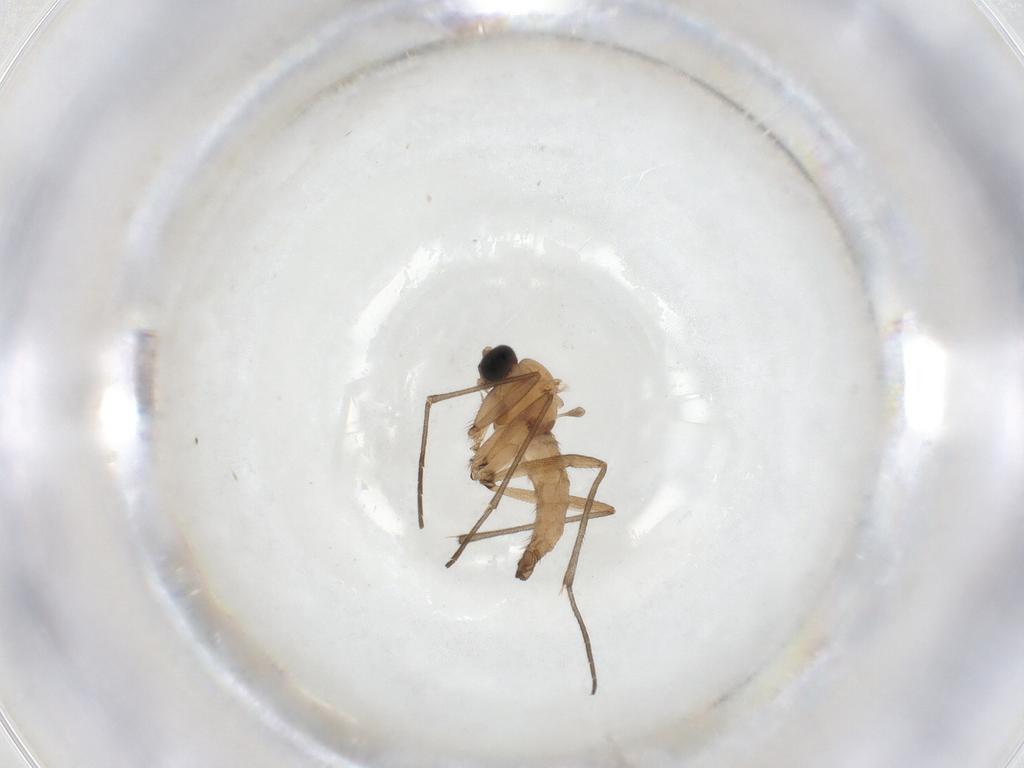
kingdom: Animalia
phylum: Arthropoda
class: Insecta
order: Diptera
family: Sciaridae
